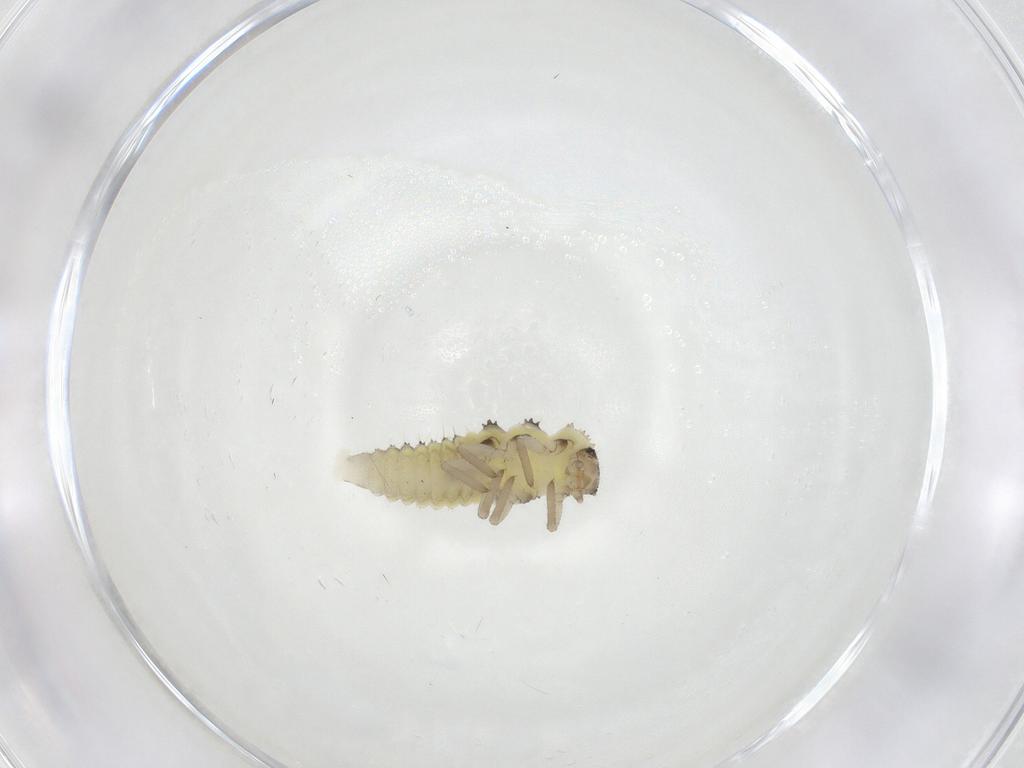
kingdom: Animalia
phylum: Arthropoda
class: Insecta
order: Coleoptera
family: Coccinellidae
